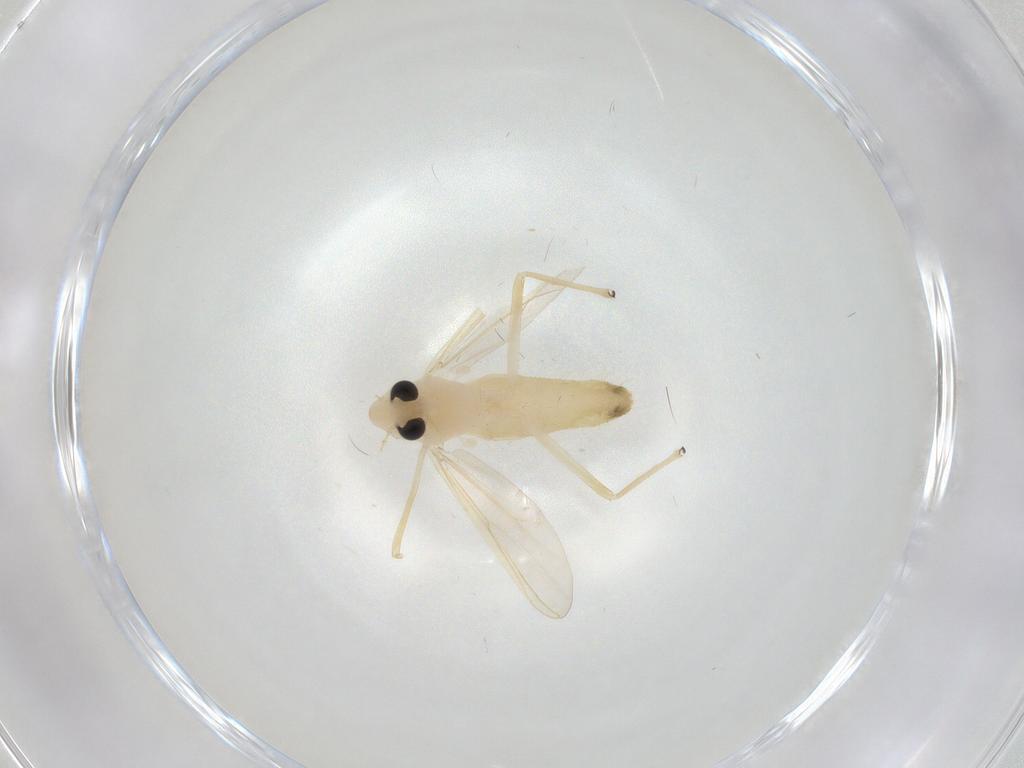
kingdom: Animalia
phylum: Arthropoda
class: Insecta
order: Diptera
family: Chironomidae
